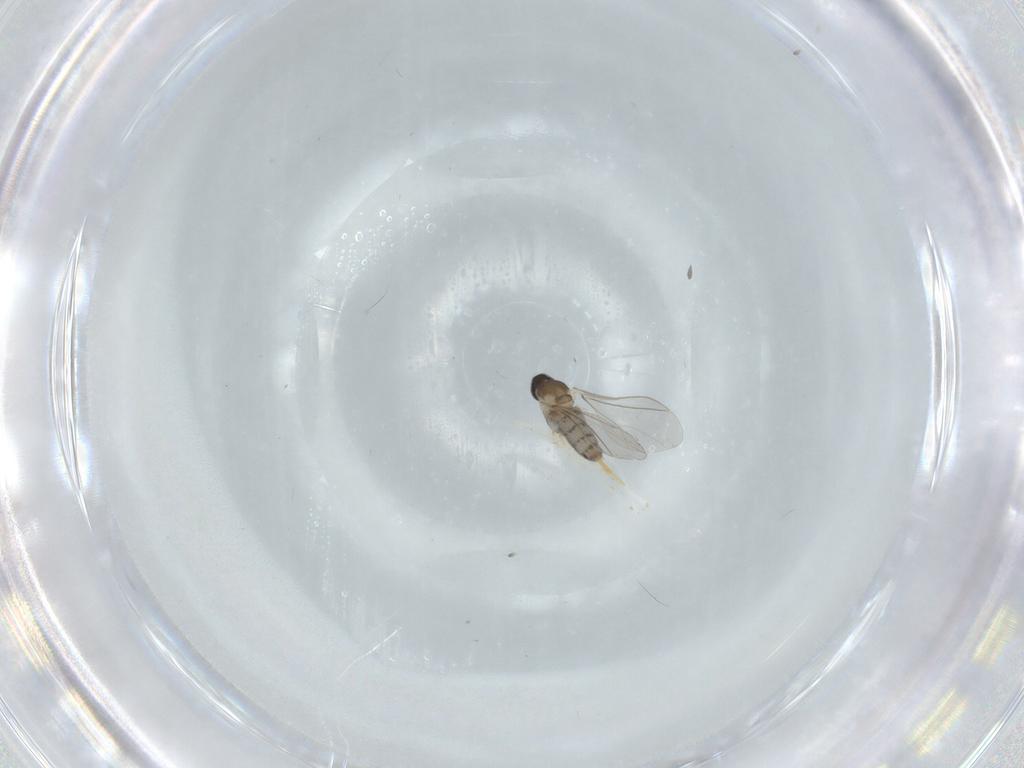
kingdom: Animalia
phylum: Arthropoda
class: Insecta
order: Diptera
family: Cecidomyiidae
